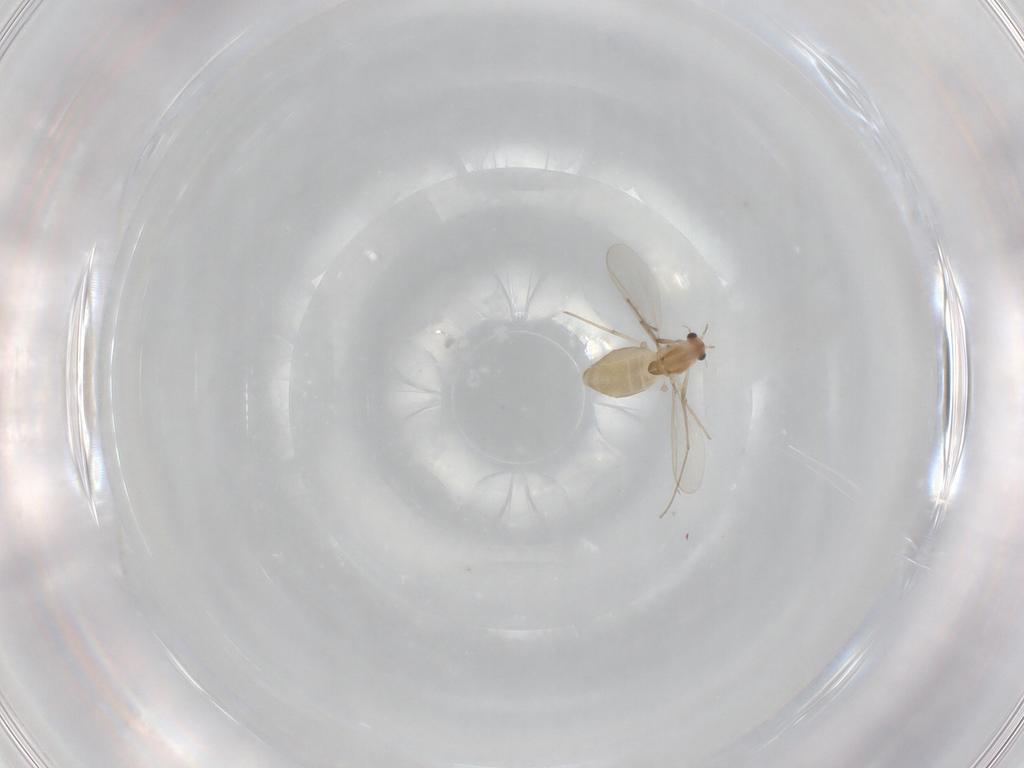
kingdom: Animalia
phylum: Arthropoda
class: Insecta
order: Diptera
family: Chironomidae
